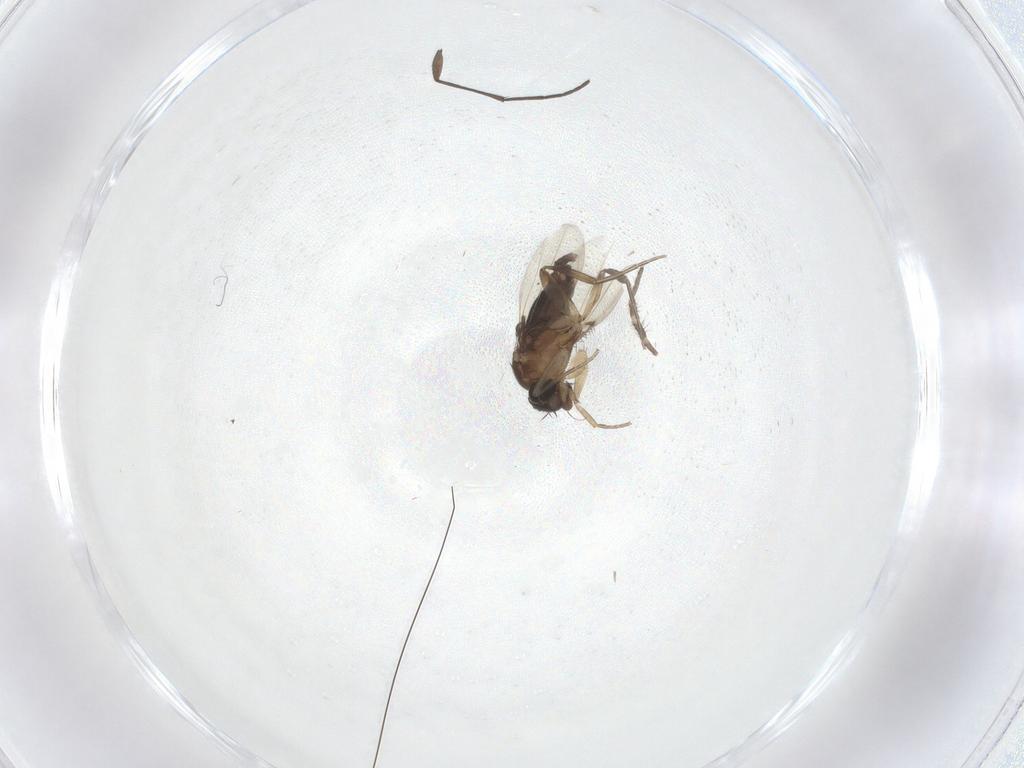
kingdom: Animalia
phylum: Arthropoda
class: Insecta
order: Diptera
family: Phoridae
